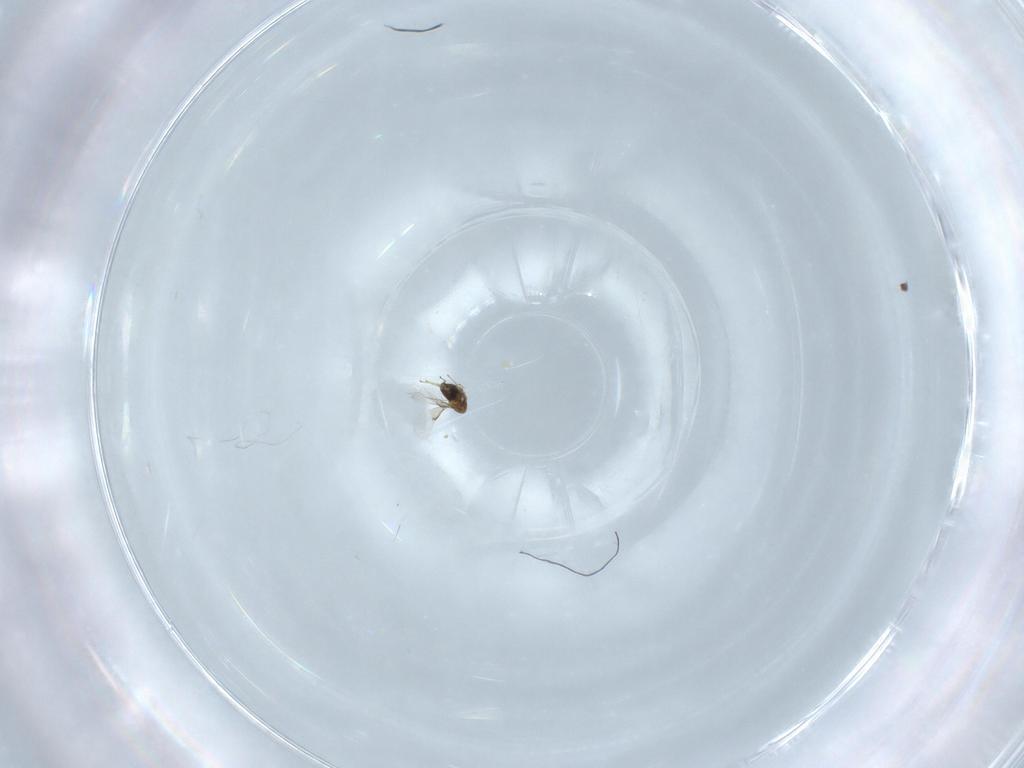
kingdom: Animalia
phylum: Arthropoda
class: Insecta
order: Hymenoptera
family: Trichogrammatidae
